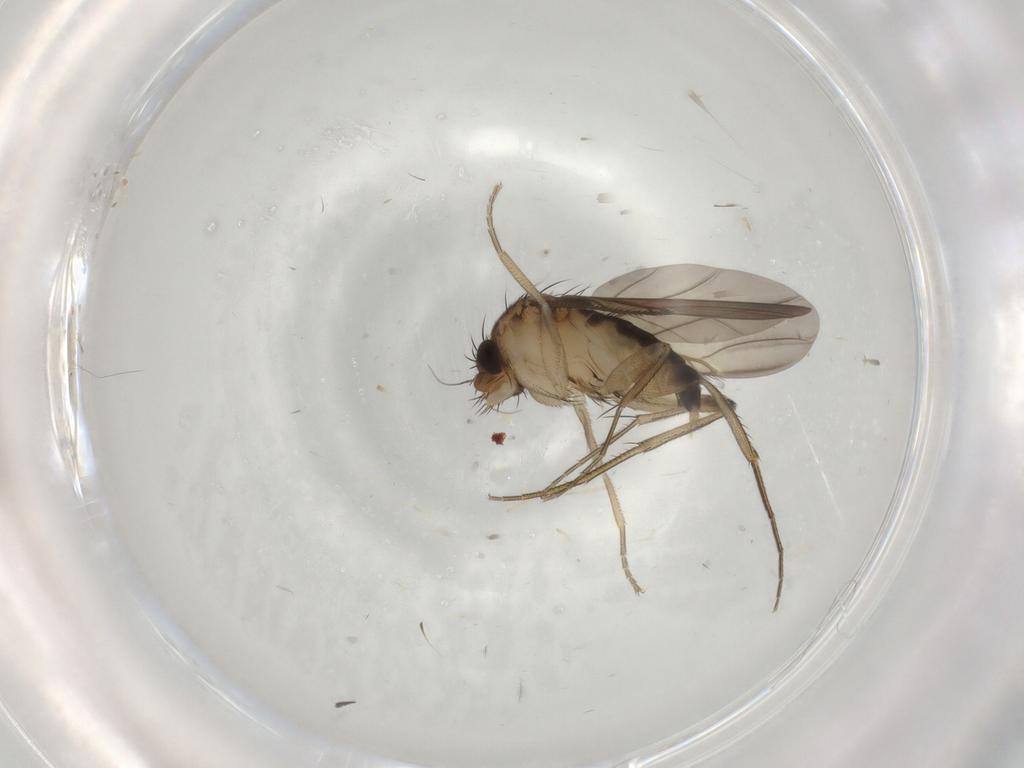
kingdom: Animalia
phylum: Arthropoda
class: Insecta
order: Diptera
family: Phoridae
